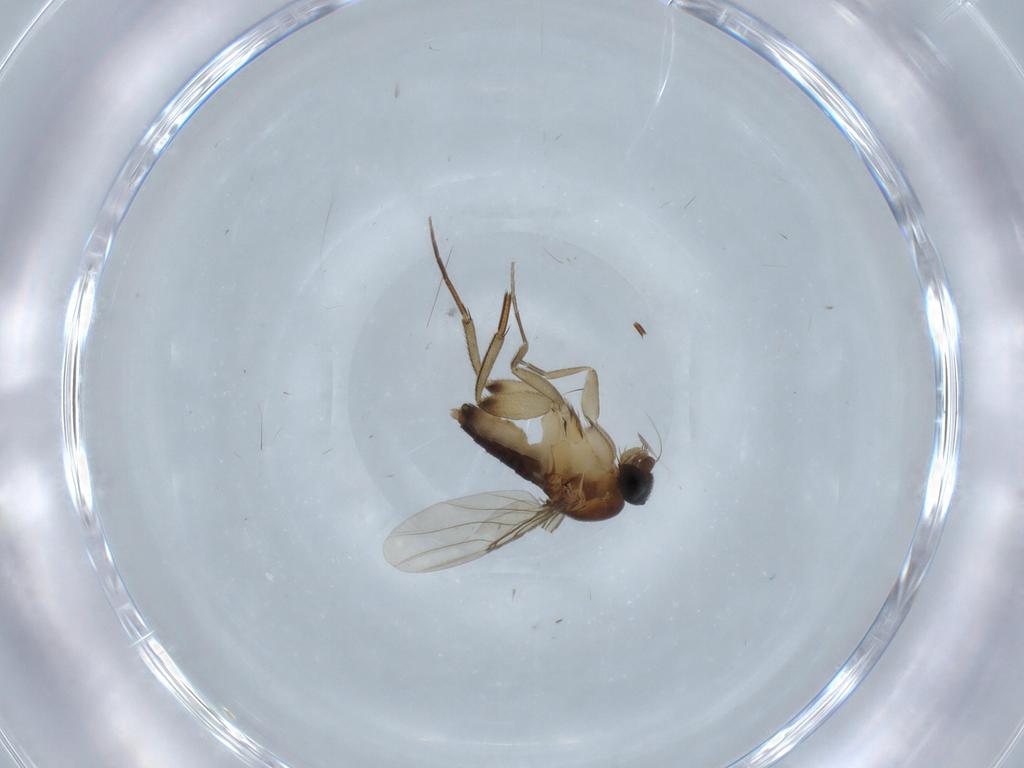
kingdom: Animalia
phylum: Arthropoda
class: Insecta
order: Diptera
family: Phoridae
